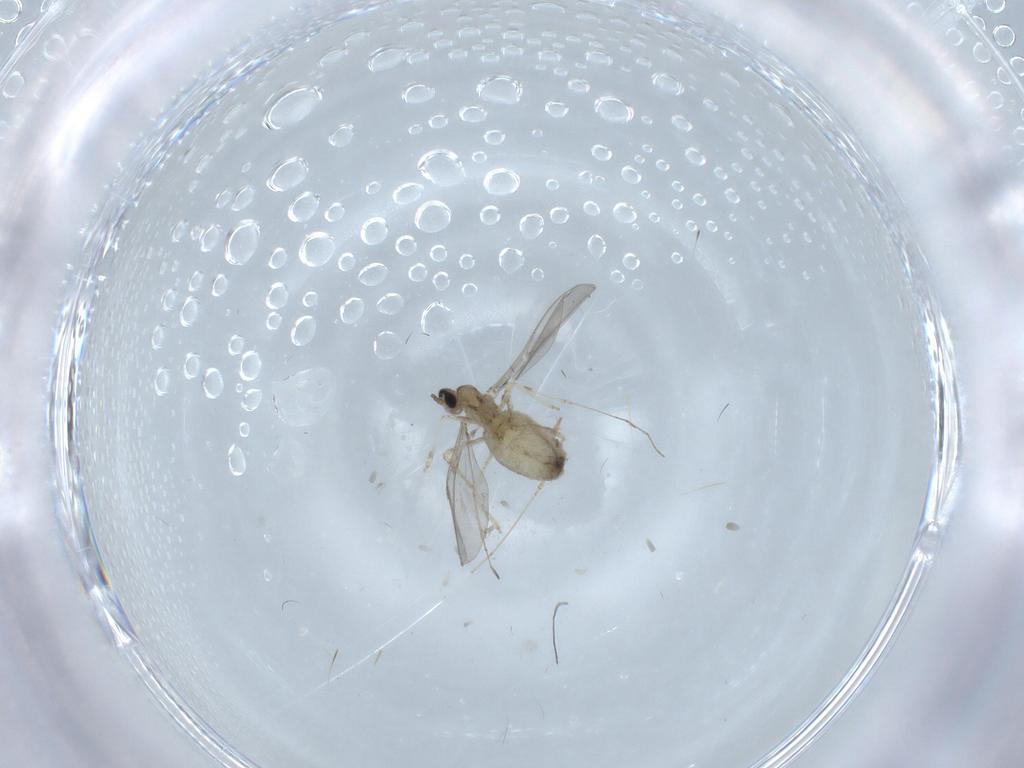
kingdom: Animalia
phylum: Arthropoda
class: Insecta
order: Diptera
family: Cecidomyiidae
